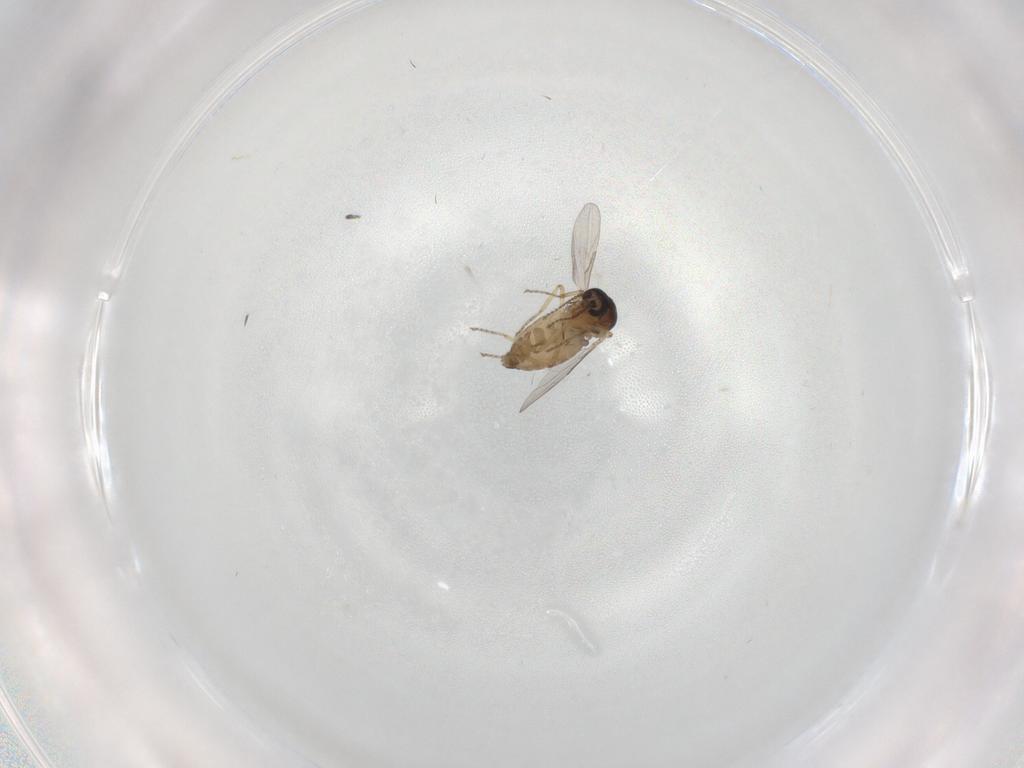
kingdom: Animalia
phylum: Arthropoda
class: Insecta
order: Diptera
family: Ceratopogonidae
